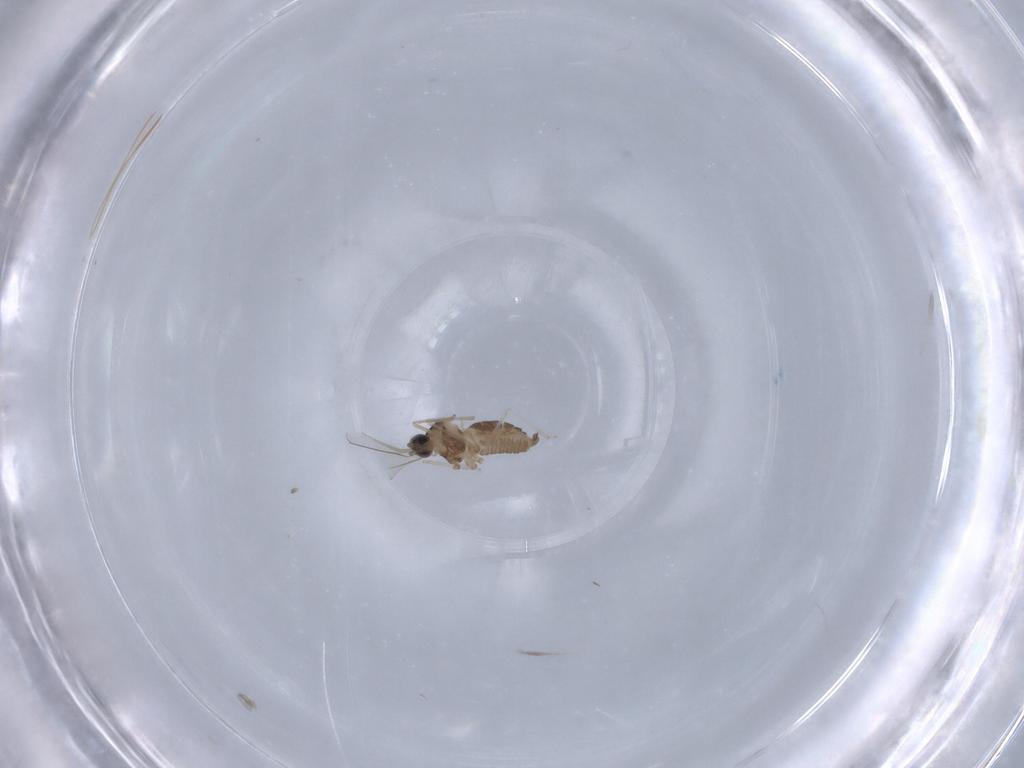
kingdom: Animalia
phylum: Arthropoda
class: Insecta
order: Diptera
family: Cecidomyiidae
